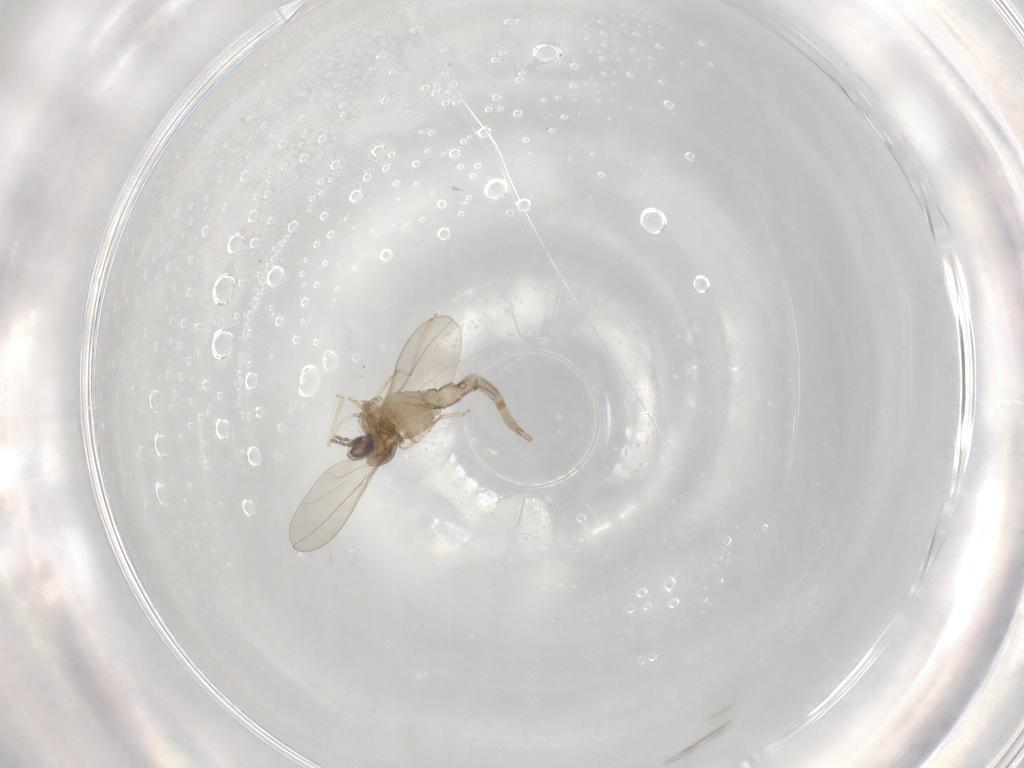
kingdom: Animalia
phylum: Arthropoda
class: Insecta
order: Diptera
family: Cecidomyiidae
